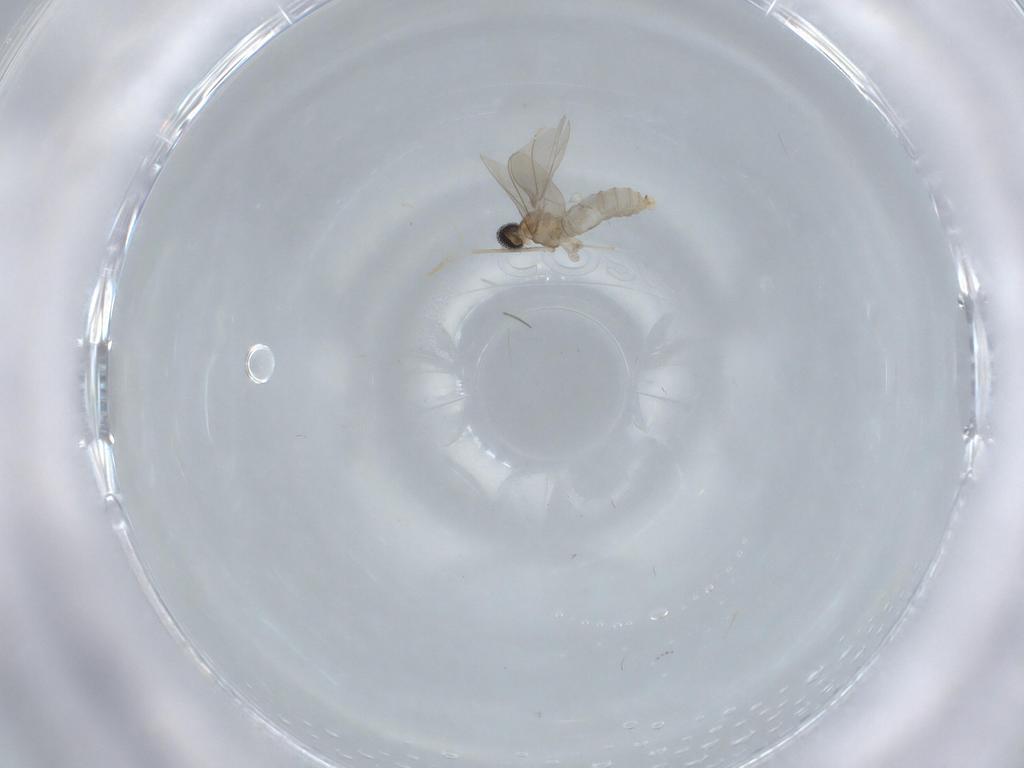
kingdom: Animalia
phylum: Arthropoda
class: Insecta
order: Diptera
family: Cecidomyiidae
